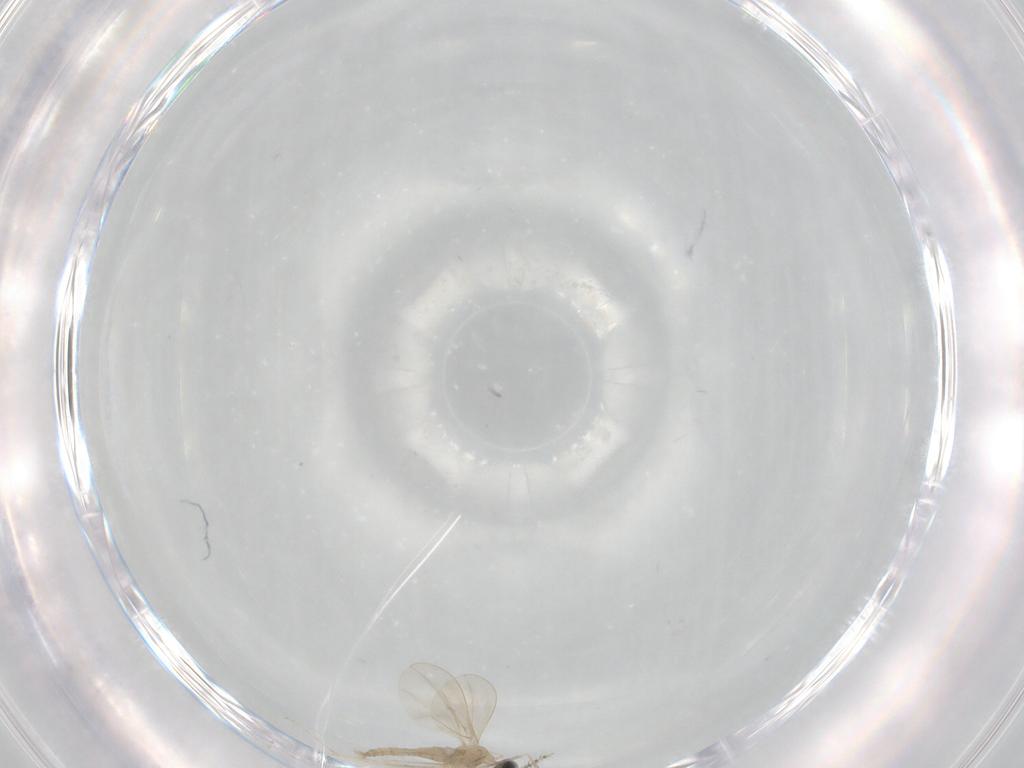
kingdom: Animalia
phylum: Arthropoda
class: Insecta
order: Diptera
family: Cecidomyiidae
